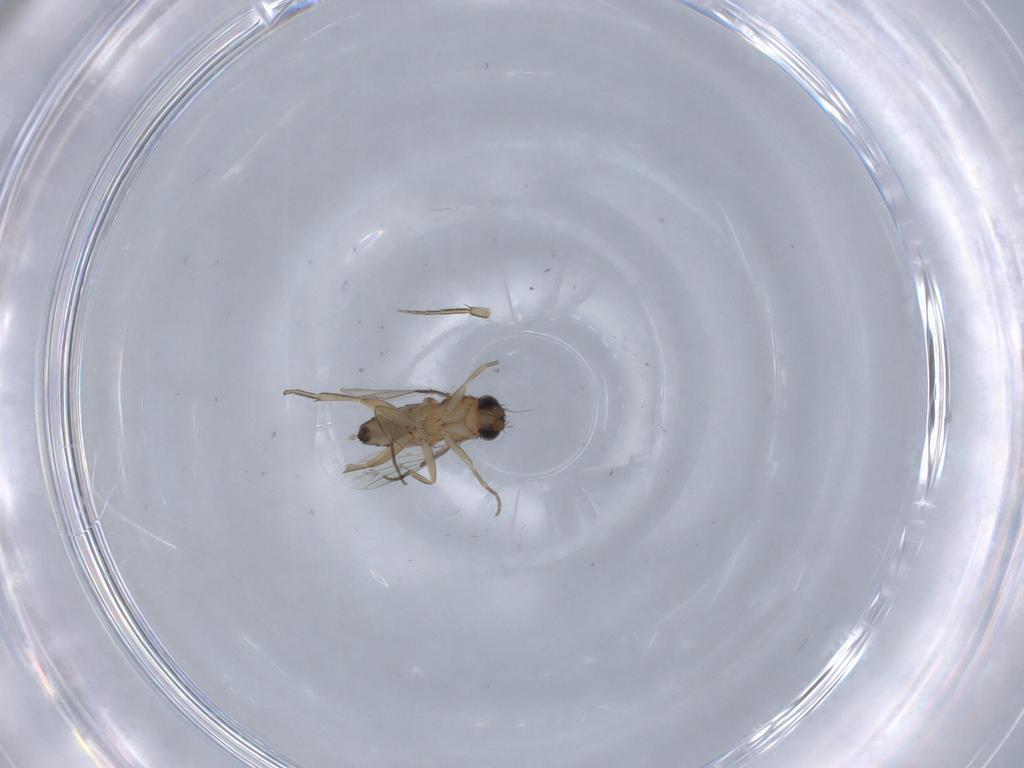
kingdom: Animalia
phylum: Arthropoda
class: Insecta
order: Diptera
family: Phoridae
